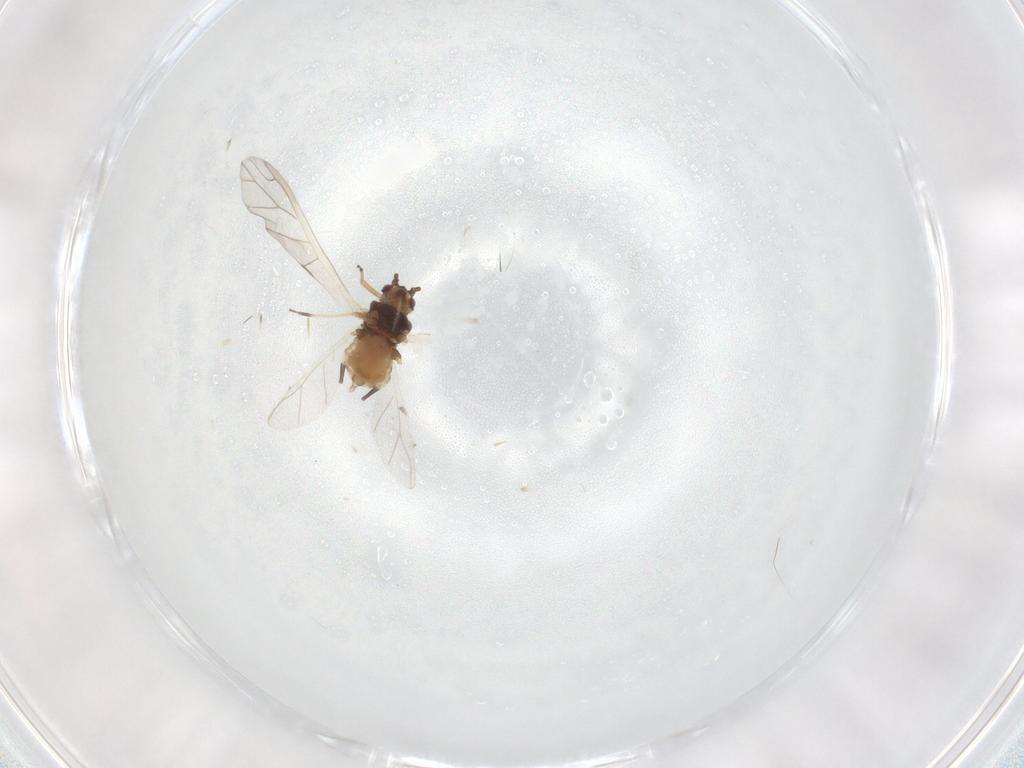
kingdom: Animalia
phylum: Arthropoda
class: Insecta
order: Hemiptera
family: Aphididae
